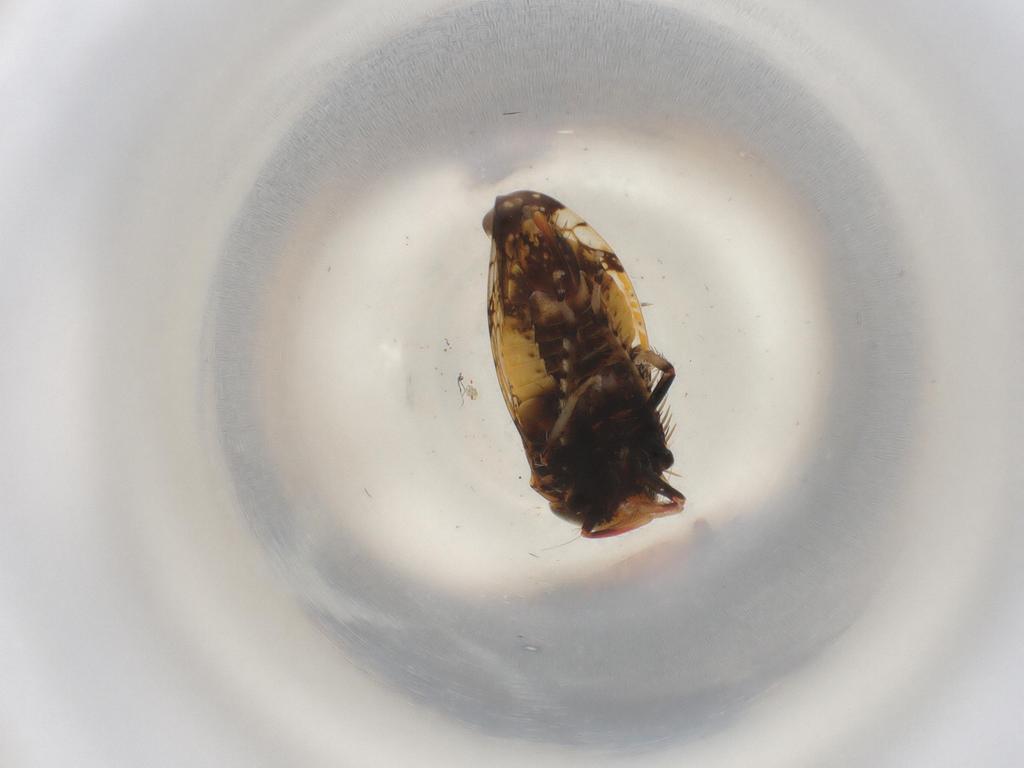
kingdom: Animalia
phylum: Arthropoda
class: Insecta
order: Hemiptera
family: Cicadellidae
